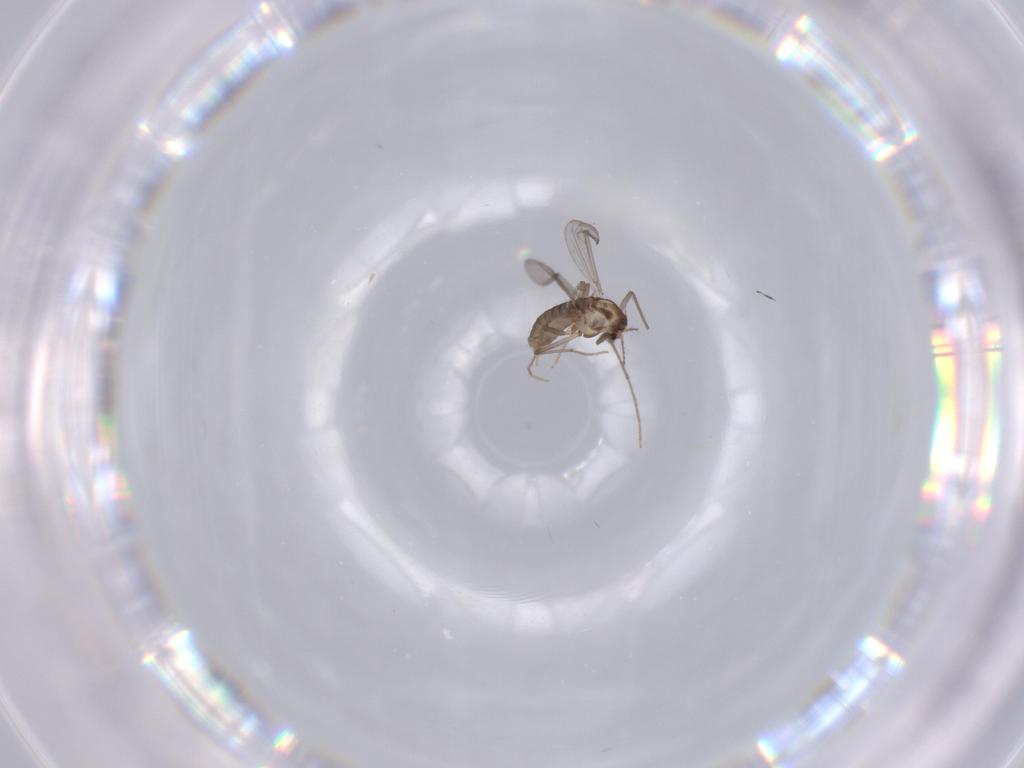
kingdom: Animalia
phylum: Arthropoda
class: Insecta
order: Diptera
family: Chironomidae
